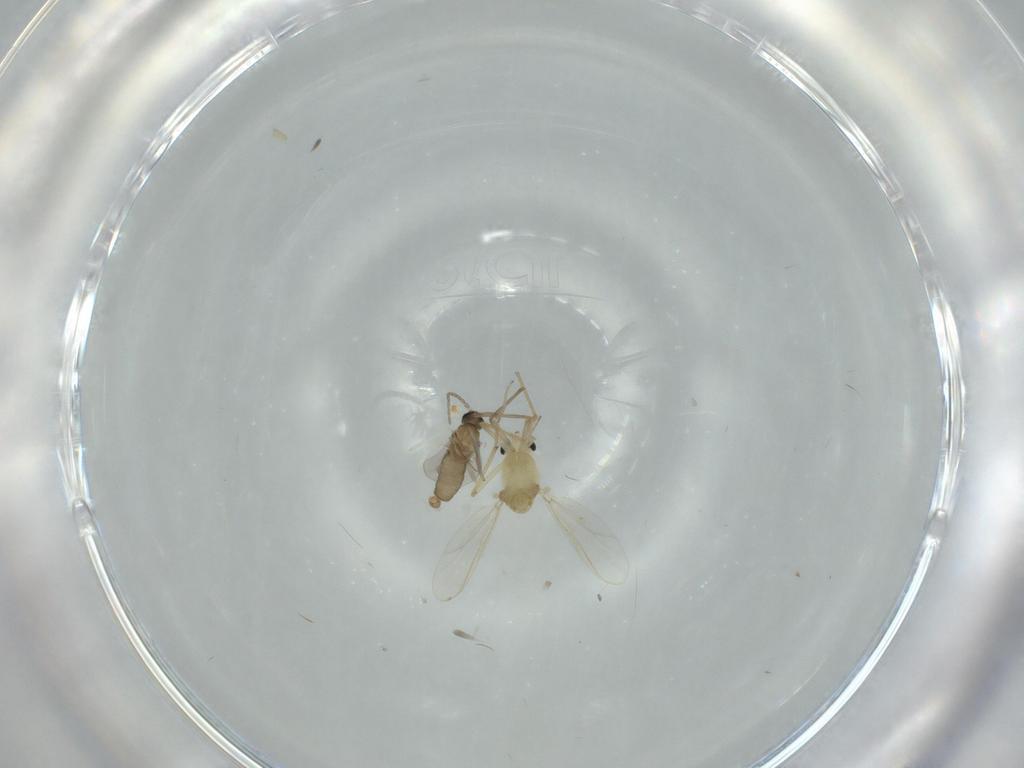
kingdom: Animalia
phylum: Arthropoda
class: Insecta
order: Diptera
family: Chironomidae
